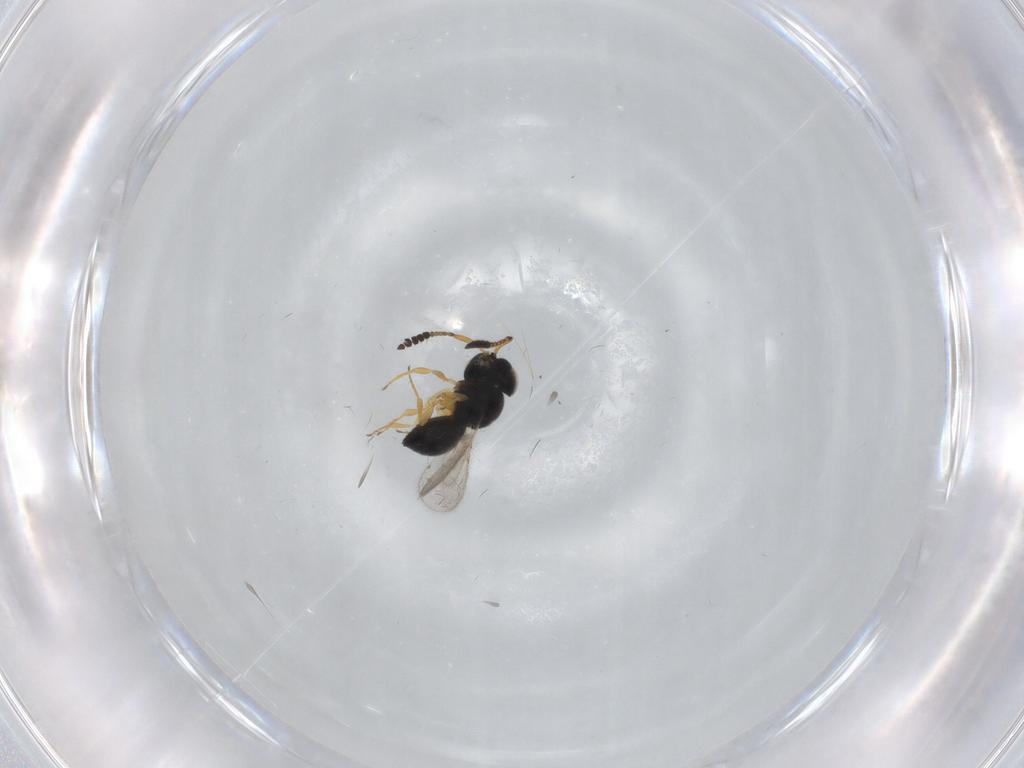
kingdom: Animalia
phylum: Arthropoda
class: Insecta
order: Hymenoptera
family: Scelionidae
